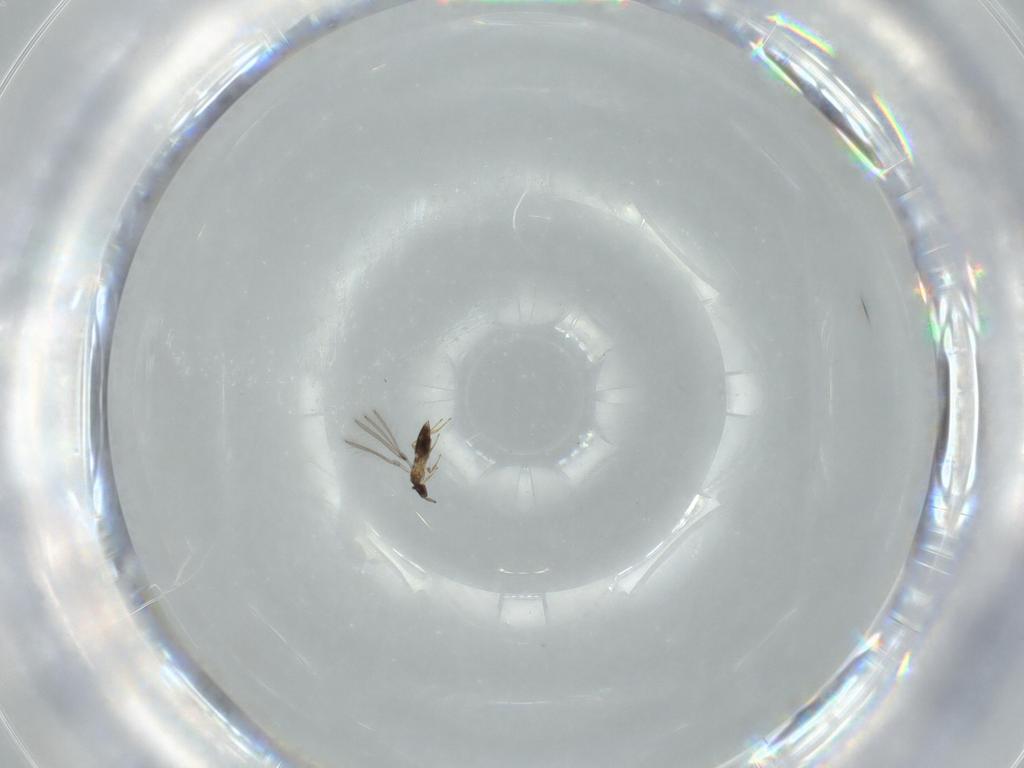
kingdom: Animalia
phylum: Arthropoda
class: Insecta
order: Hymenoptera
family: Mymaridae
